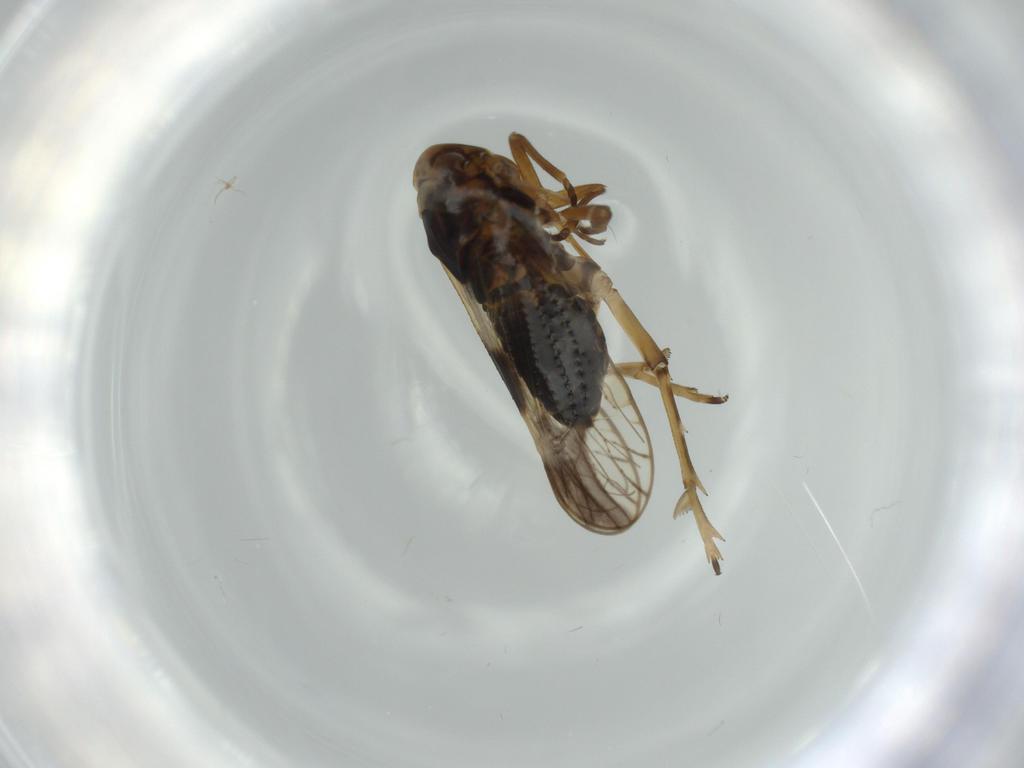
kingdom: Animalia
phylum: Arthropoda
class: Insecta
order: Hemiptera
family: Delphacidae
